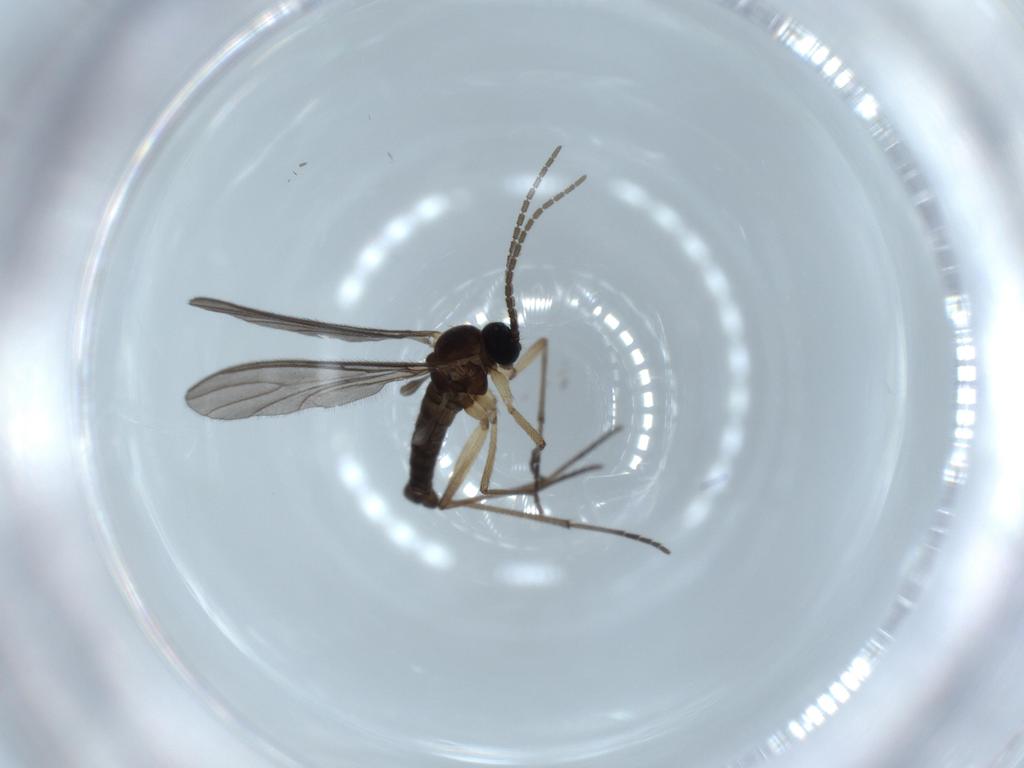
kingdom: Animalia
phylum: Arthropoda
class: Insecta
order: Diptera
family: Sciaridae
